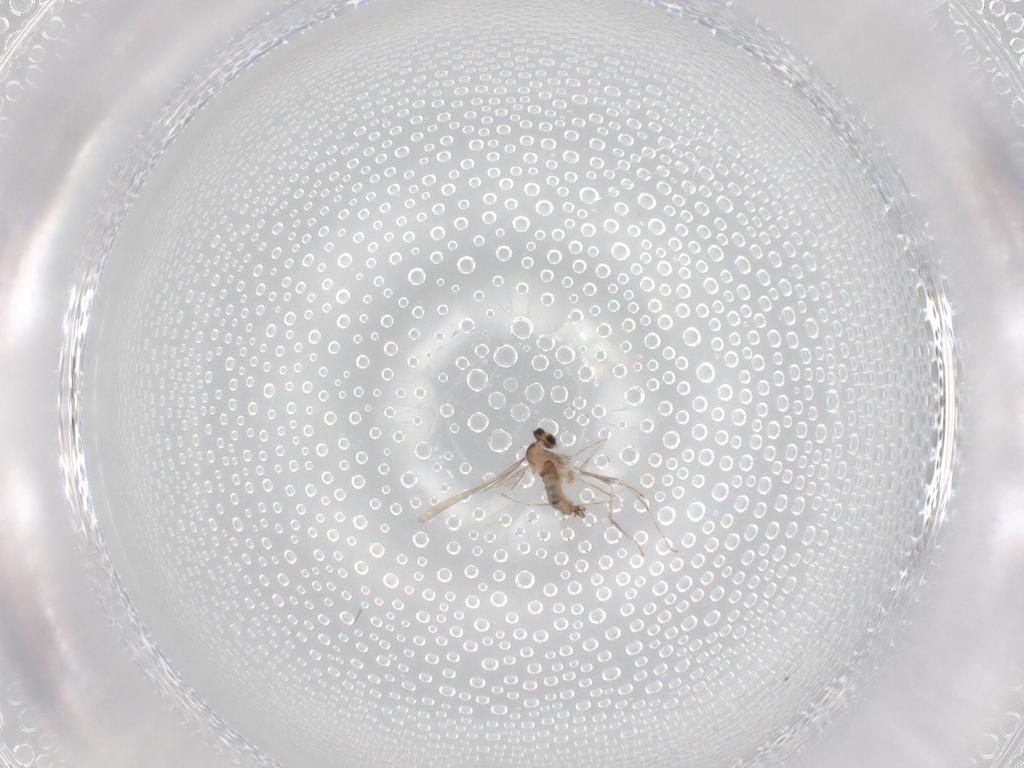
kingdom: Animalia
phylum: Arthropoda
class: Insecta
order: Diptera
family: Cecidomyiidae
